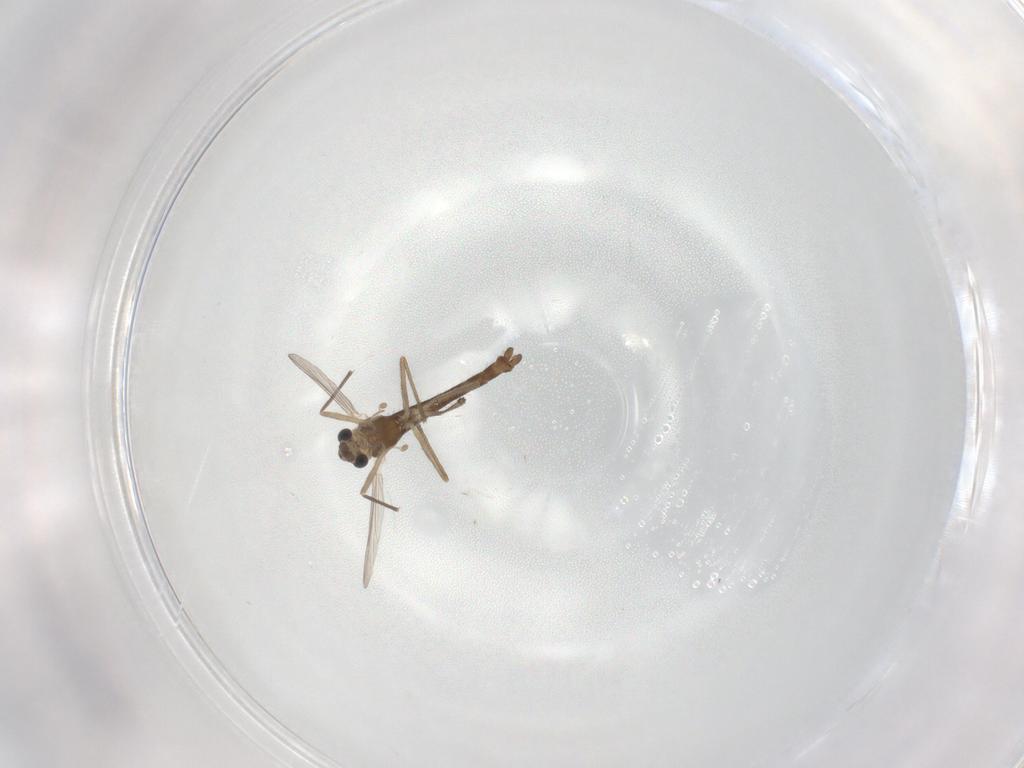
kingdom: Animalia
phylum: Arthropoda
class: Insecta
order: Diptera
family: Chironomidae
